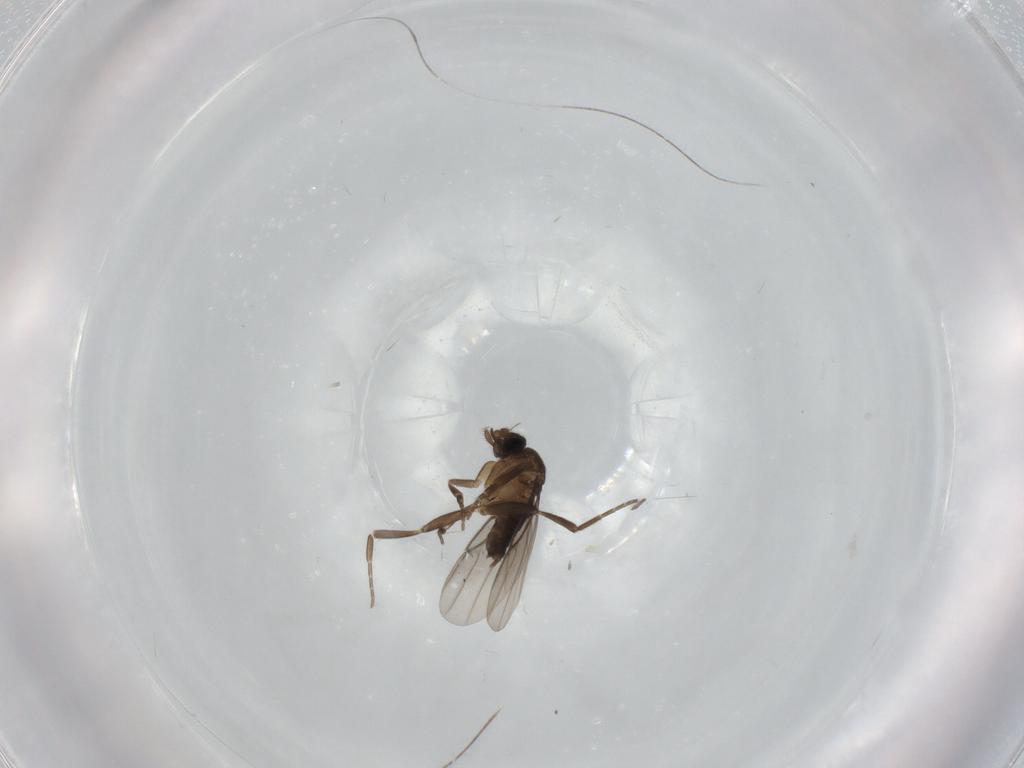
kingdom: Animalia
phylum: Arthropoda
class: Insecta
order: Diptera
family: Phoridae
